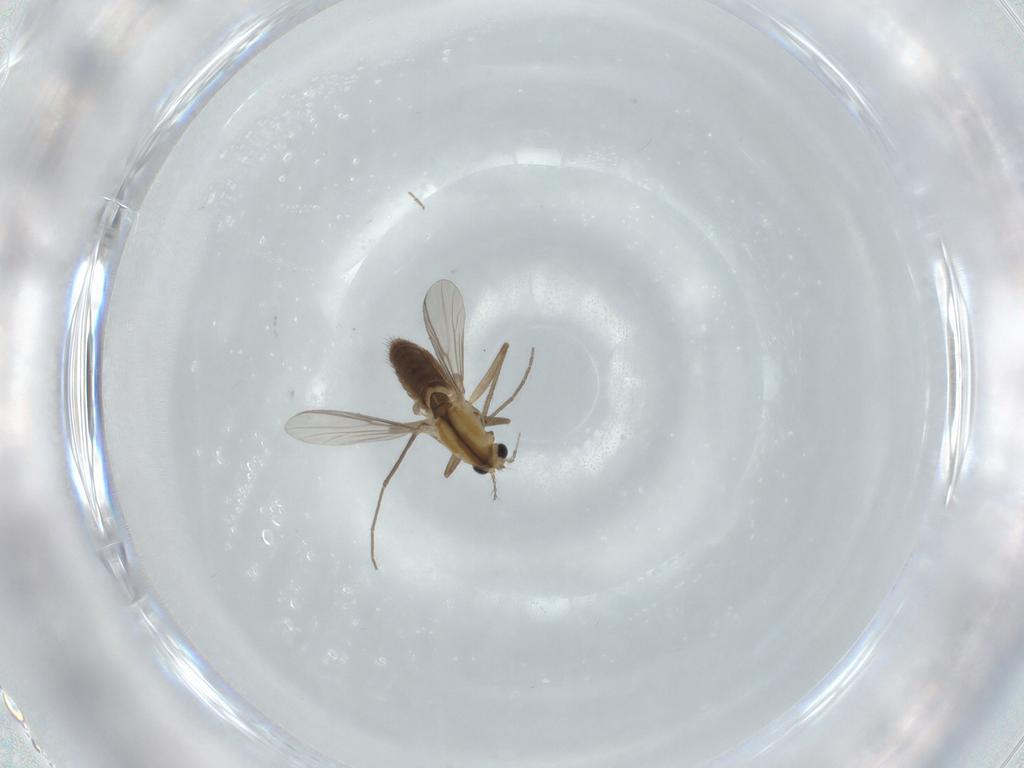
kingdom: Animalia
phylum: Arthropoda
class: Insecta
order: Diptera
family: Chironomidae
